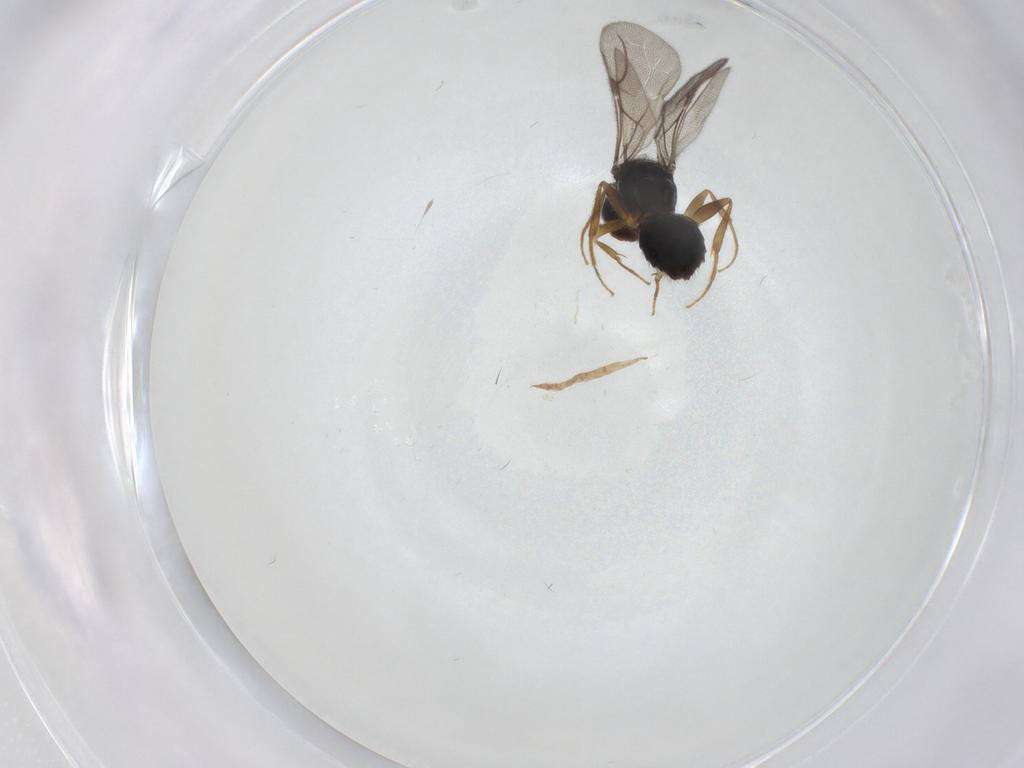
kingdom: Animalia
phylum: Arthropoda
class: Insecta
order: Hymenoptera
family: Bethylidae
